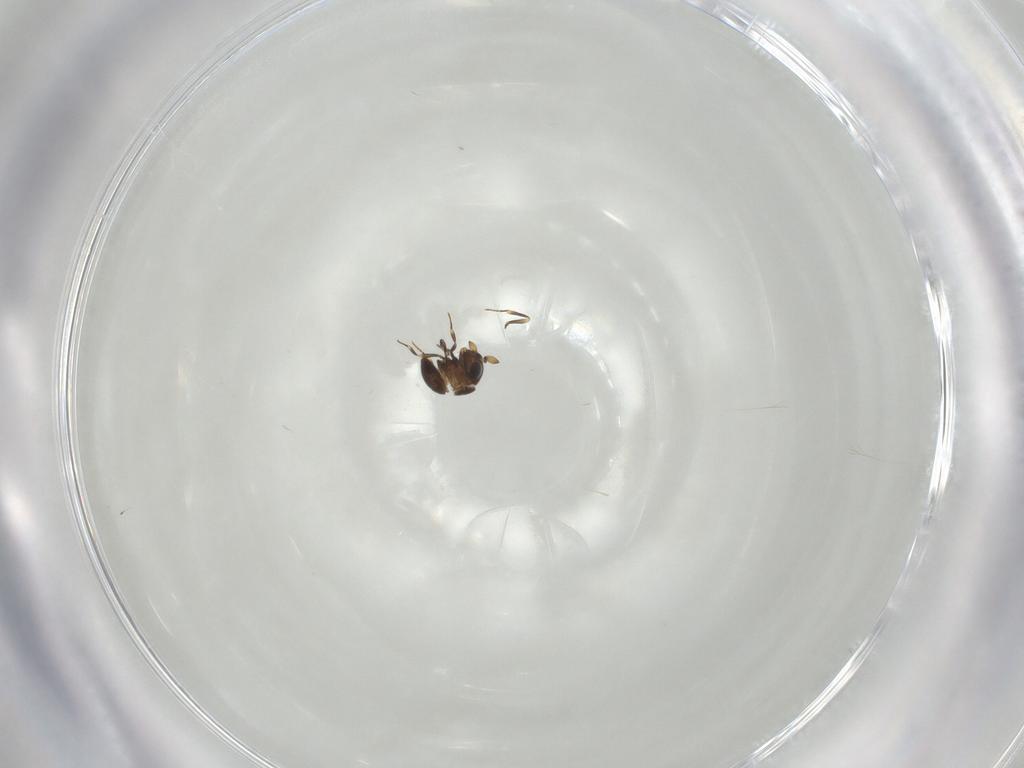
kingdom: Animalia
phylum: Arthropoda
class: Insecta
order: Hymenoptera
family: Scelionidae
